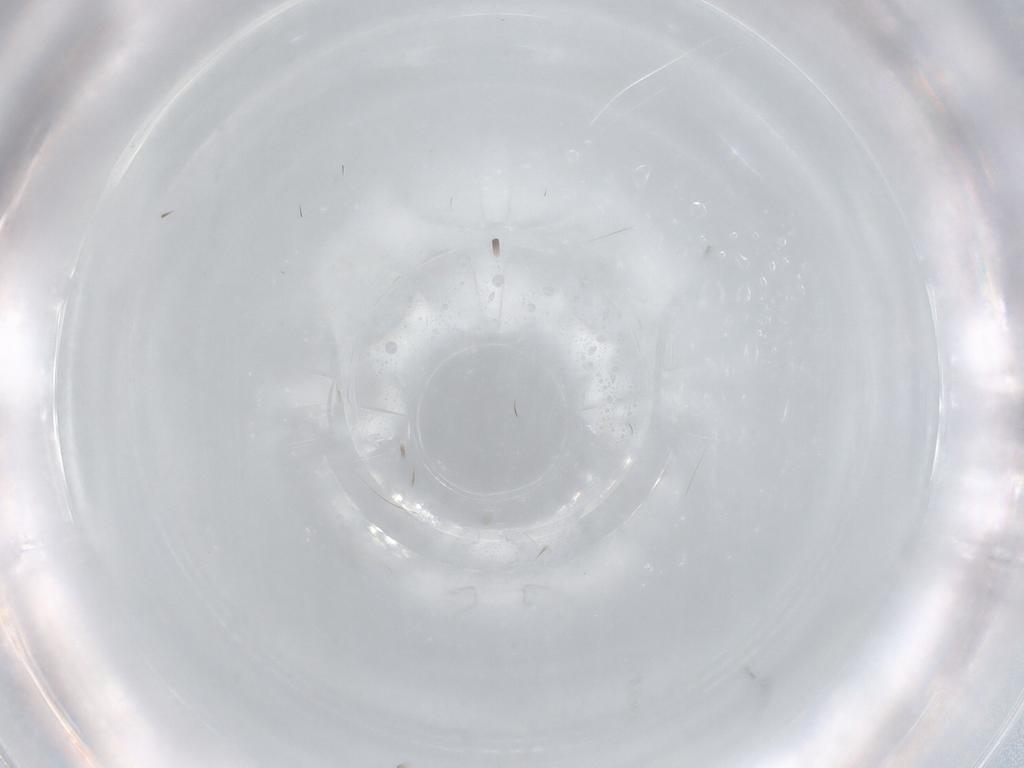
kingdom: Animalia
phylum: Arthropoda
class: Insecta
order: Hymenoptera
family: Mymaridae
